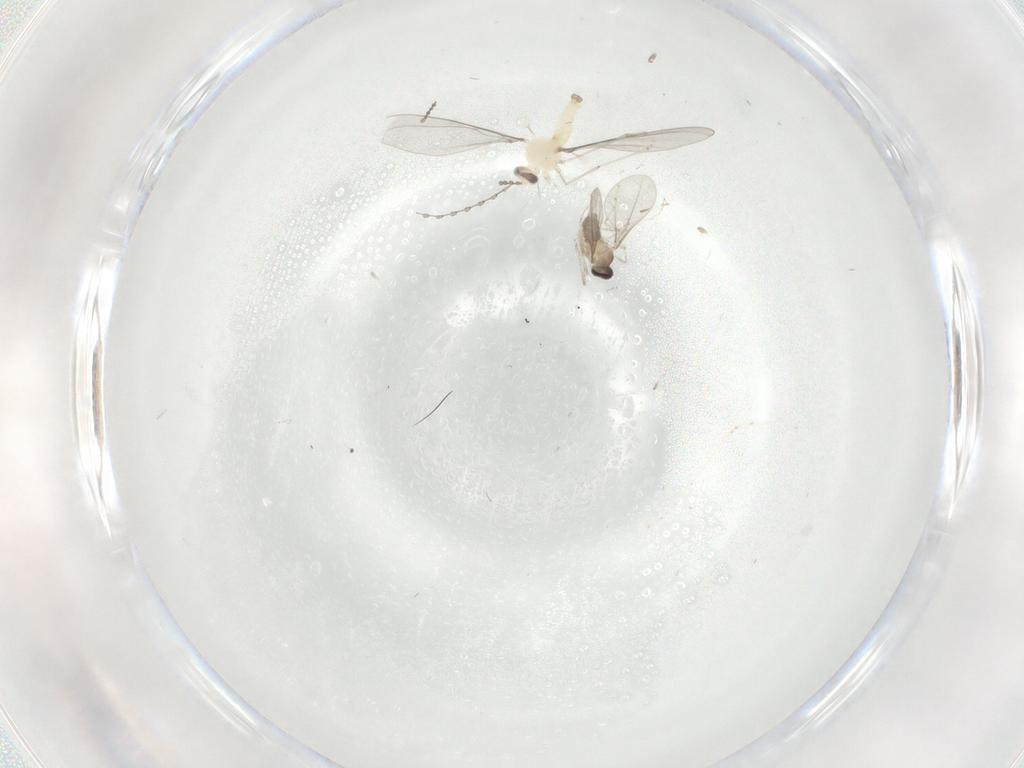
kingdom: Animalia
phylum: Arthropoda
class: Insecta
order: Diptera
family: Cecidomyiidae
